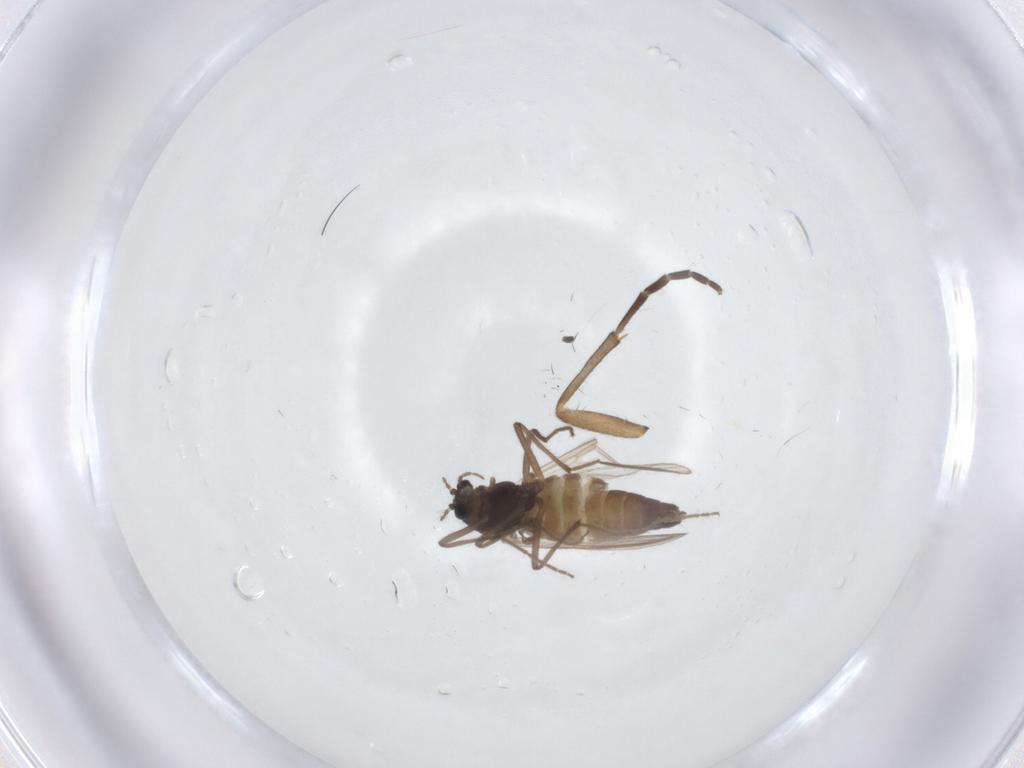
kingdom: Animalia
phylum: Arthropoda
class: Insecta
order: Diptera
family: Chironomidae
